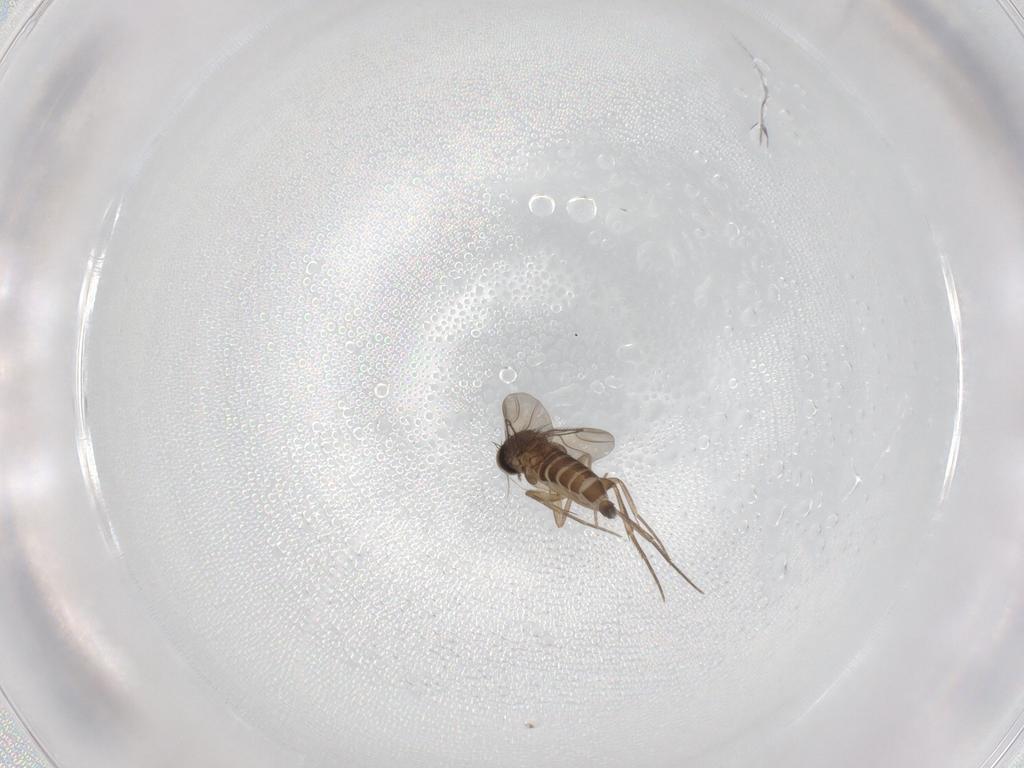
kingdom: Animalia
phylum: Arthropoda
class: Insecta
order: Diptera
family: Phoridae
